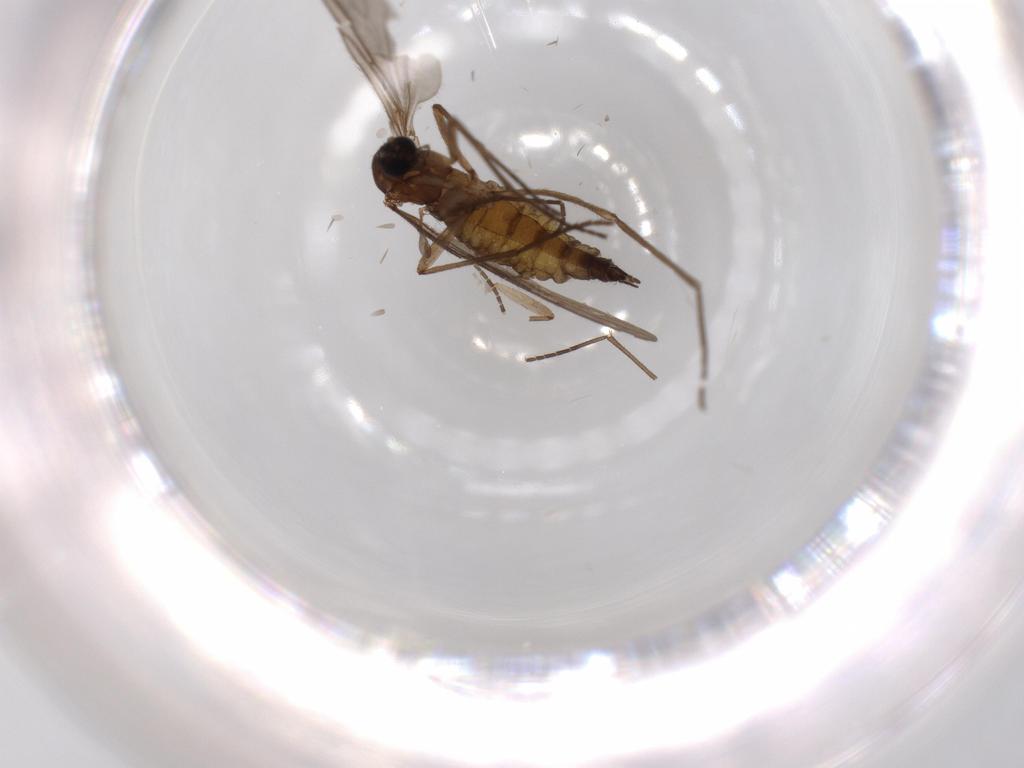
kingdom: Animalia
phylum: Arthropoda
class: Insecta
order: Diptera
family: Sciaridae
